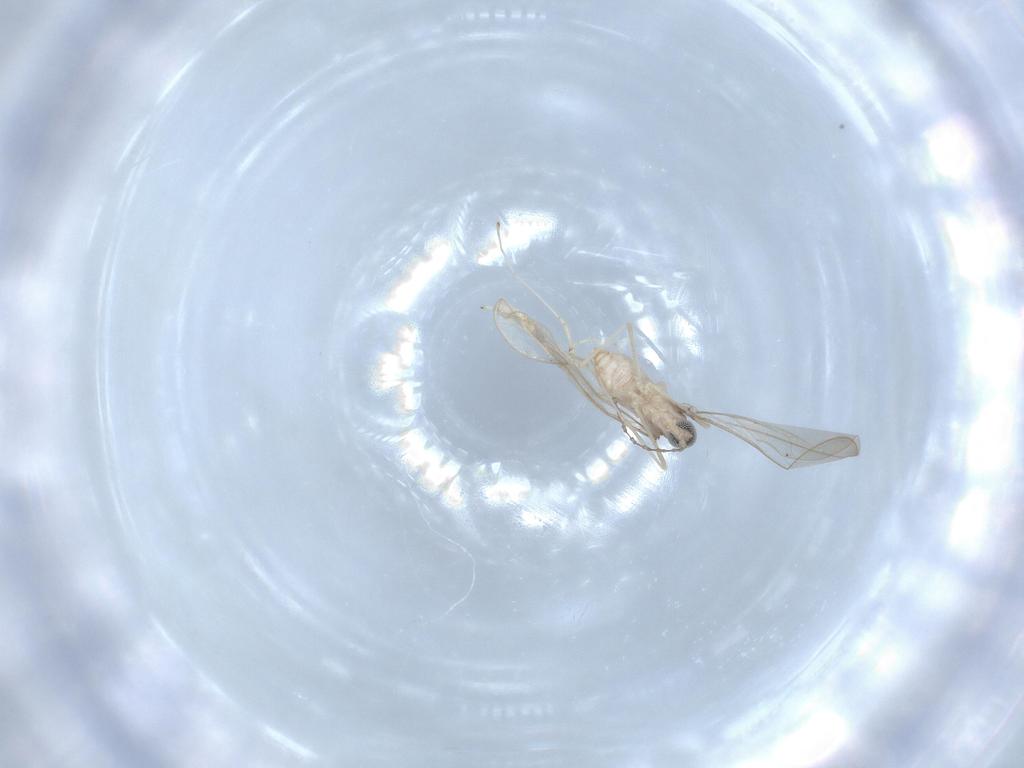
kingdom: Animalia
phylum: Arthropoda
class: Insecta
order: Diptera
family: Cecidomyiidae
